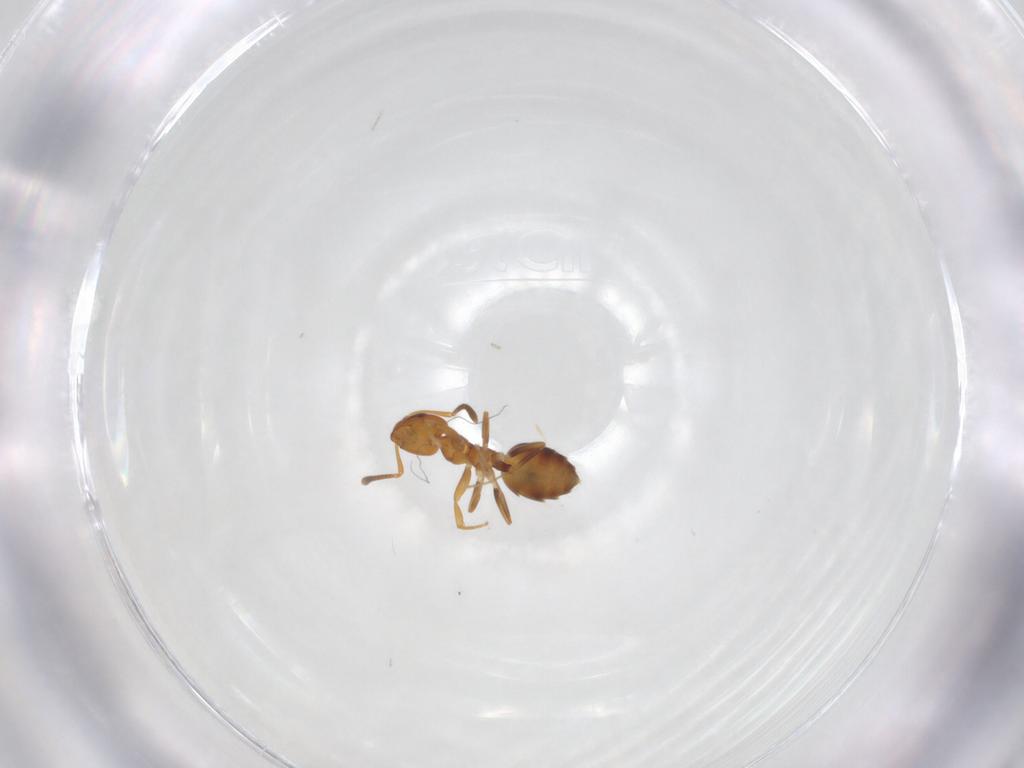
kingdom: Animalia
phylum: Arthropoda
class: Insecta
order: Hymenoptera
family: Formicidae
